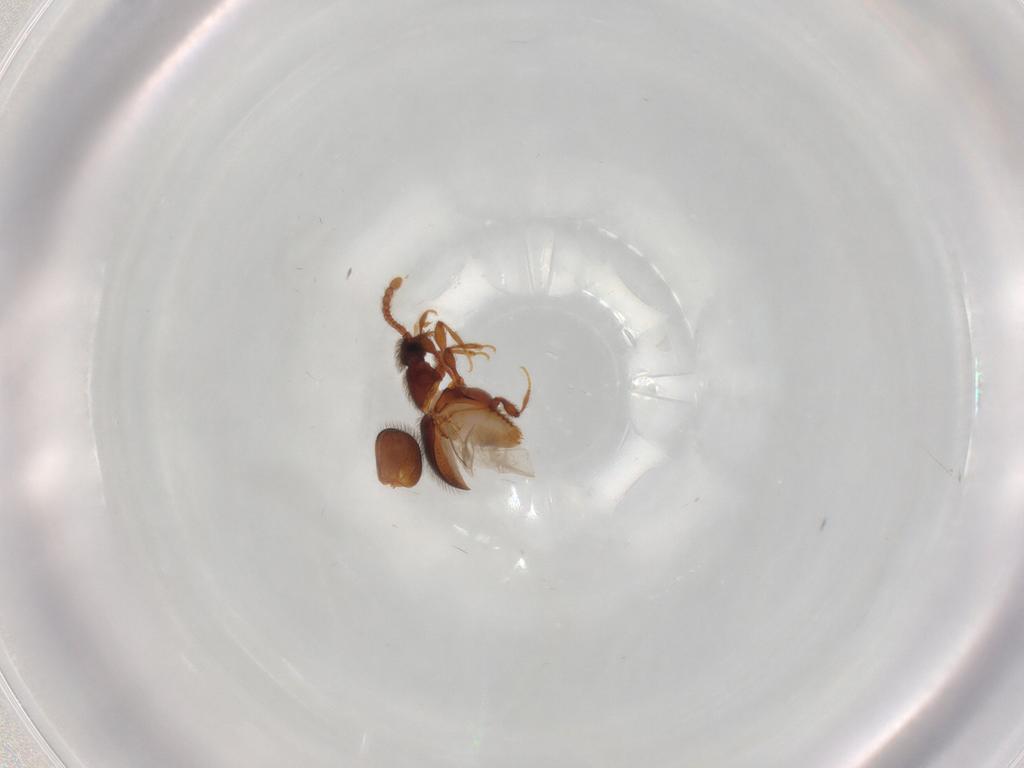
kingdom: Animalia
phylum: Arthropoda
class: Insecta
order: Coleoptera
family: Staphylinidae
